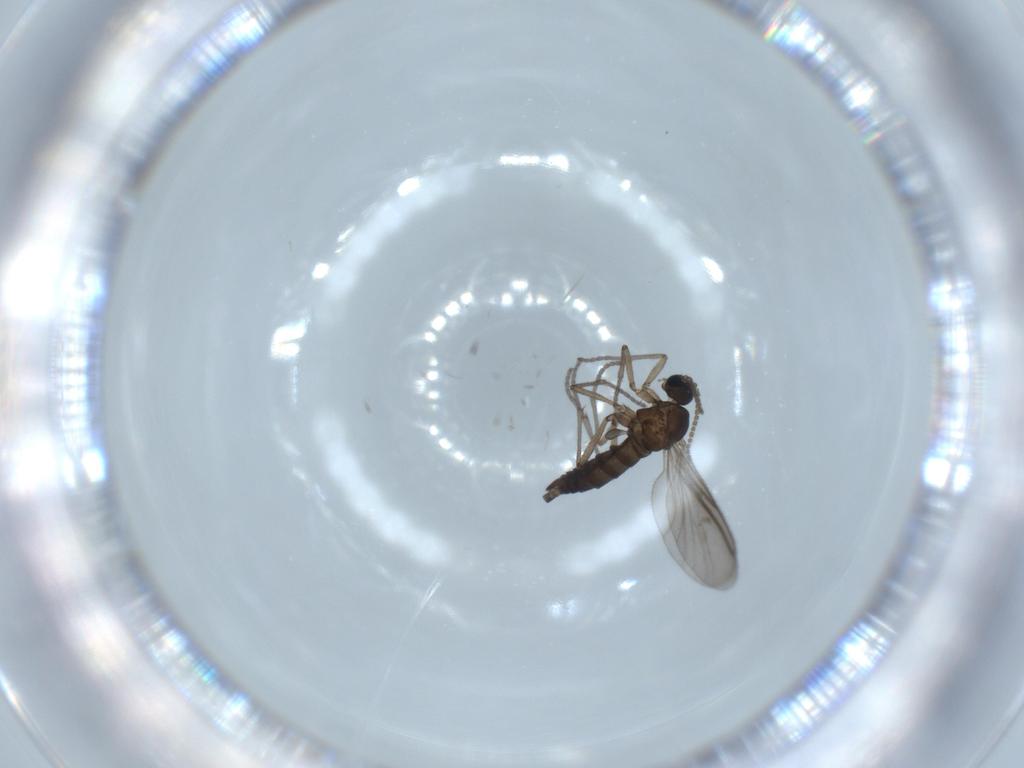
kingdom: Animalia
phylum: Arthropoda
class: Insecta
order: Diptera
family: Sciaridae
